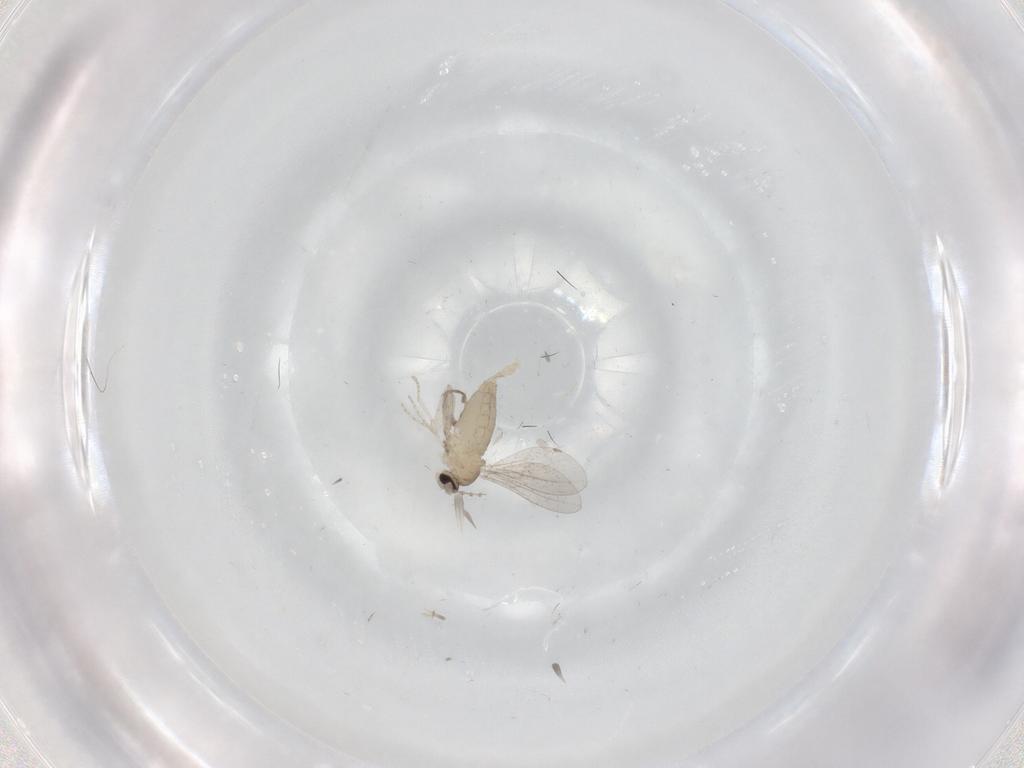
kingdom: Animalia
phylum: Arthropoda
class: Insecta
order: Diptera
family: Cecidomyiidae
